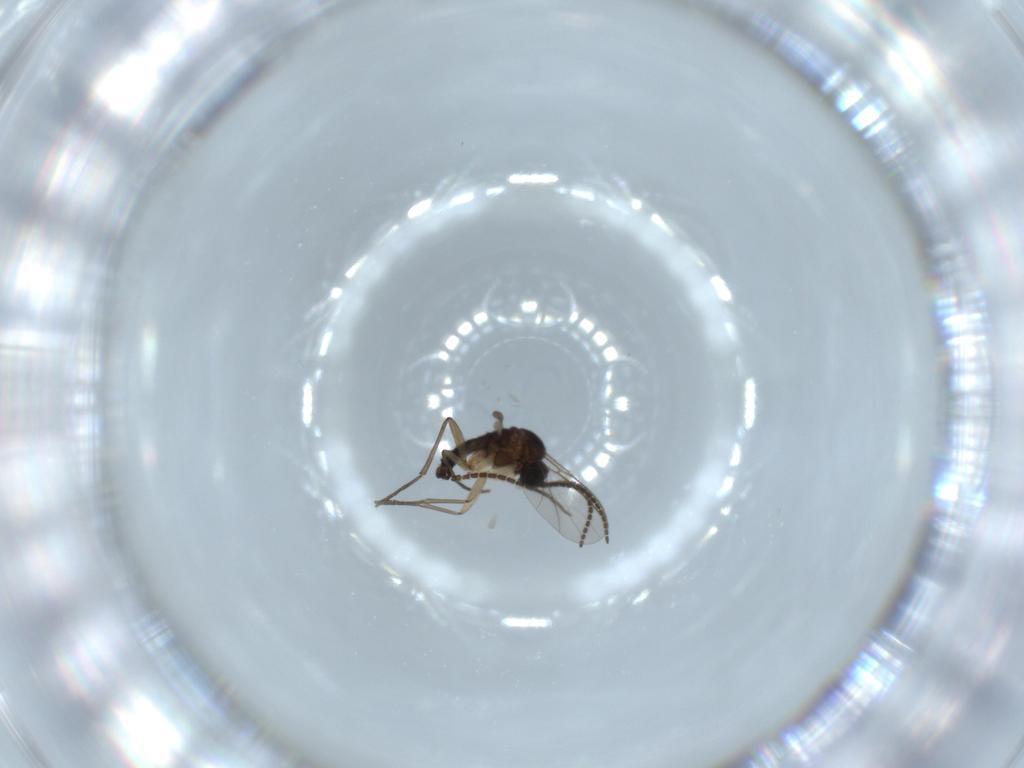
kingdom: Animalia
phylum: Arthropoda
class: Insecta
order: Diptera
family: Sciaridae
